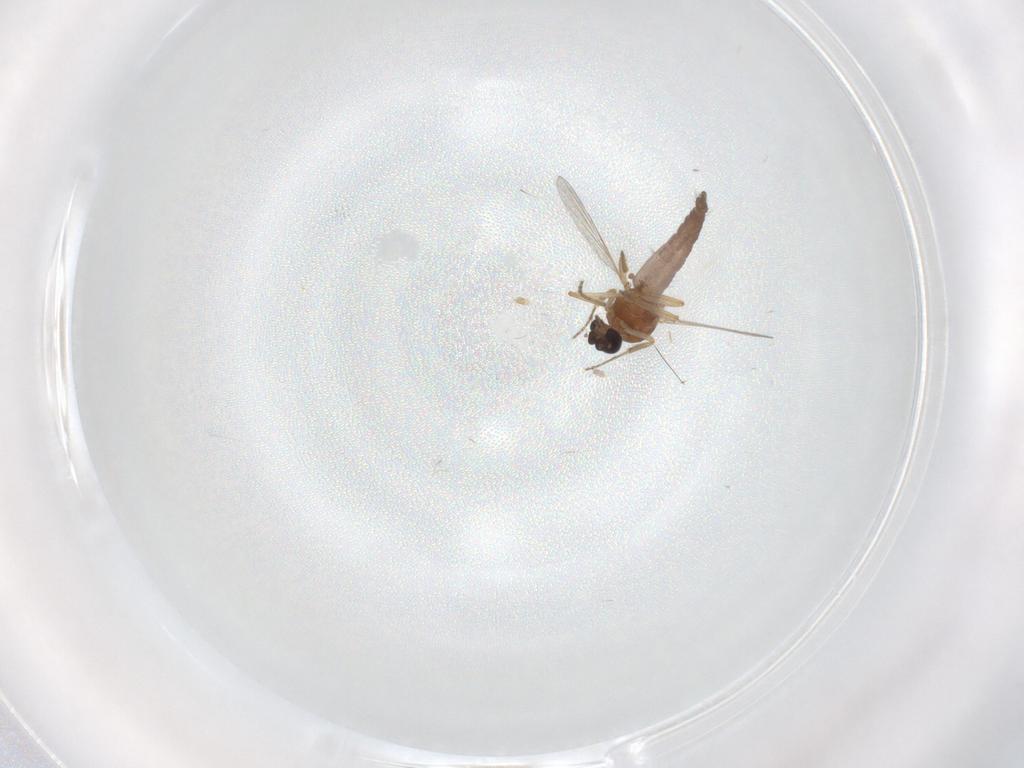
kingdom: Animalia
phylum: Arthropoda
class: Insecta
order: Diptera
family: Ceratopogonidae
